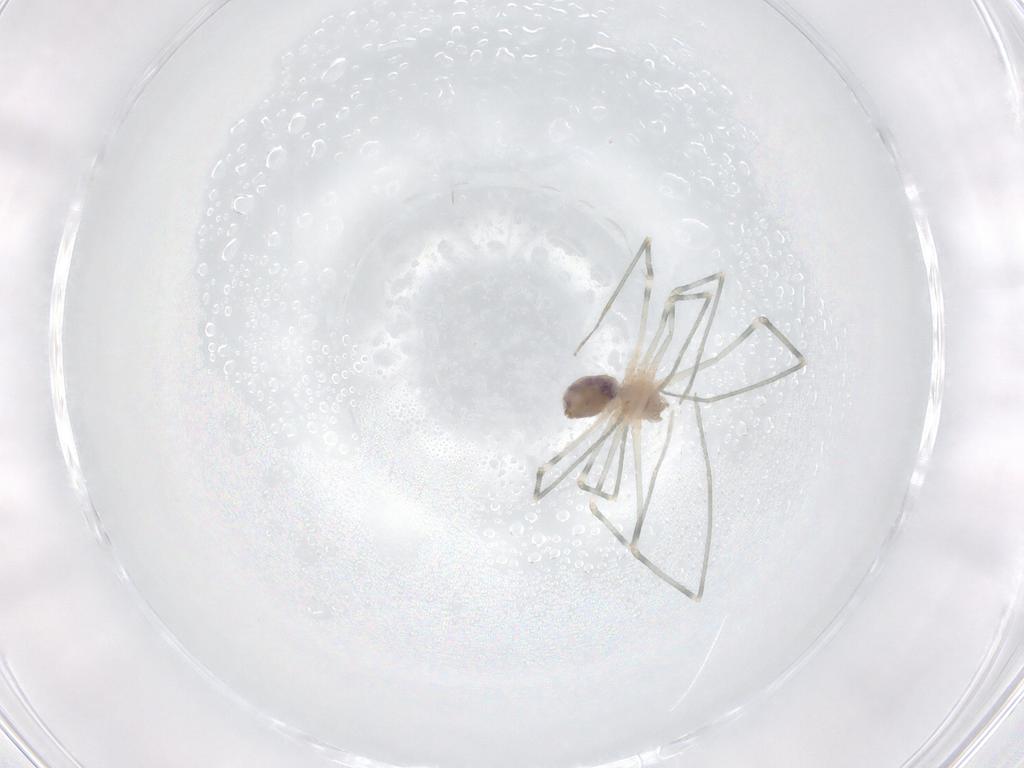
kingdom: Animalia
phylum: Arthropoda
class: Arachnida
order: Araneae
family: Pholcidae
